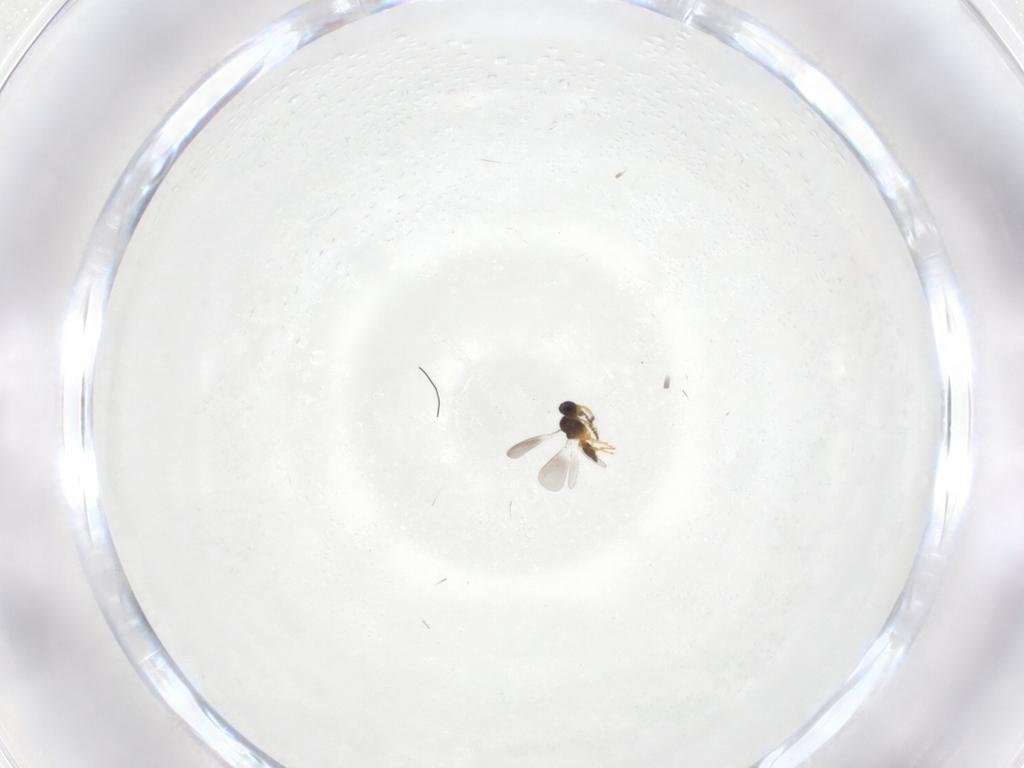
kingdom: Animalia
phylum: Arthropoda
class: Insecta
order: Hymenoptera
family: Platygastridae
